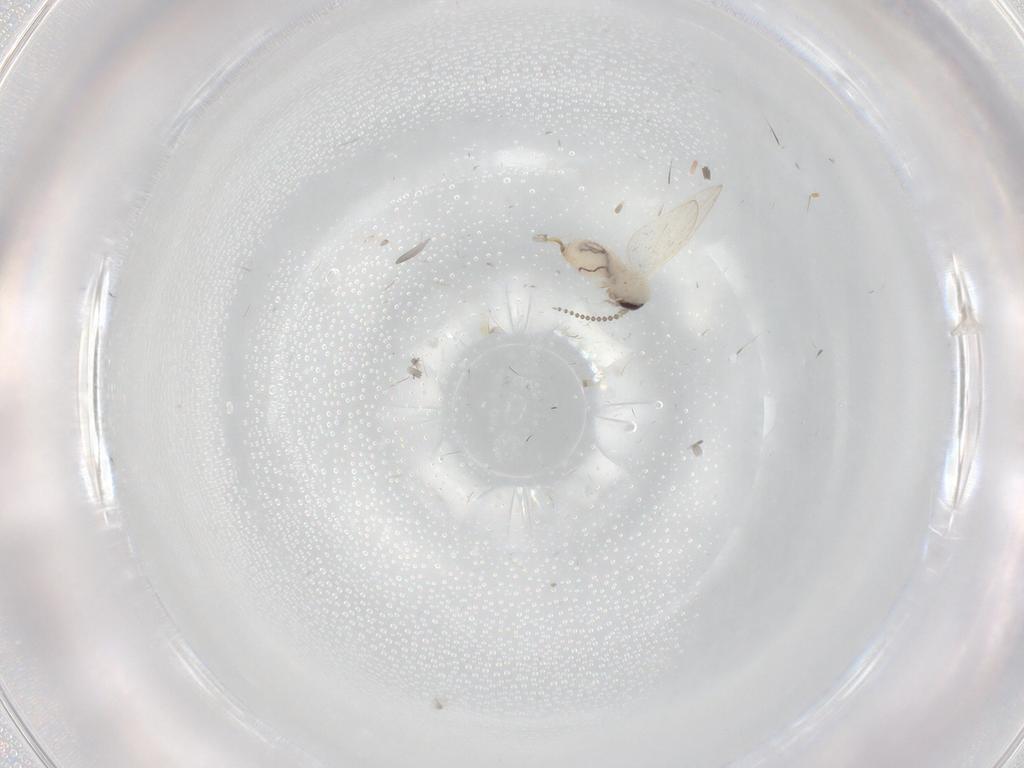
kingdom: Animalia
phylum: Arthropoda
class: Insecta
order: Diptera
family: Psychodidae
